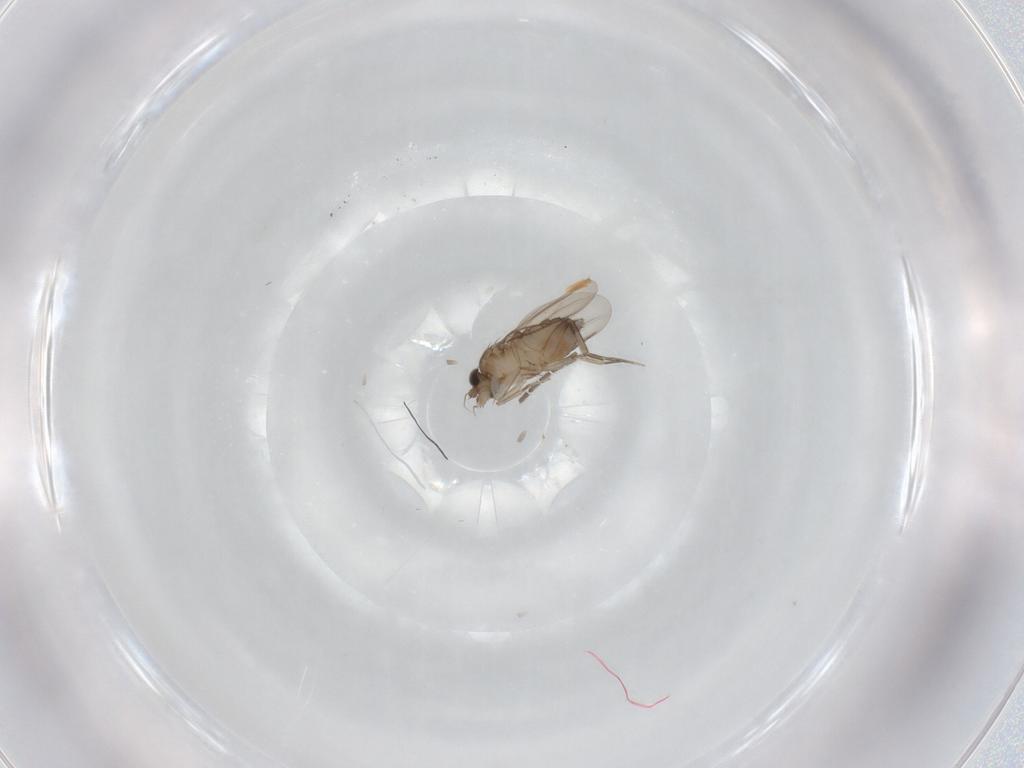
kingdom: Animalia
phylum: Arthropoda
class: Insecta
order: Diptera
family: Phoridae
